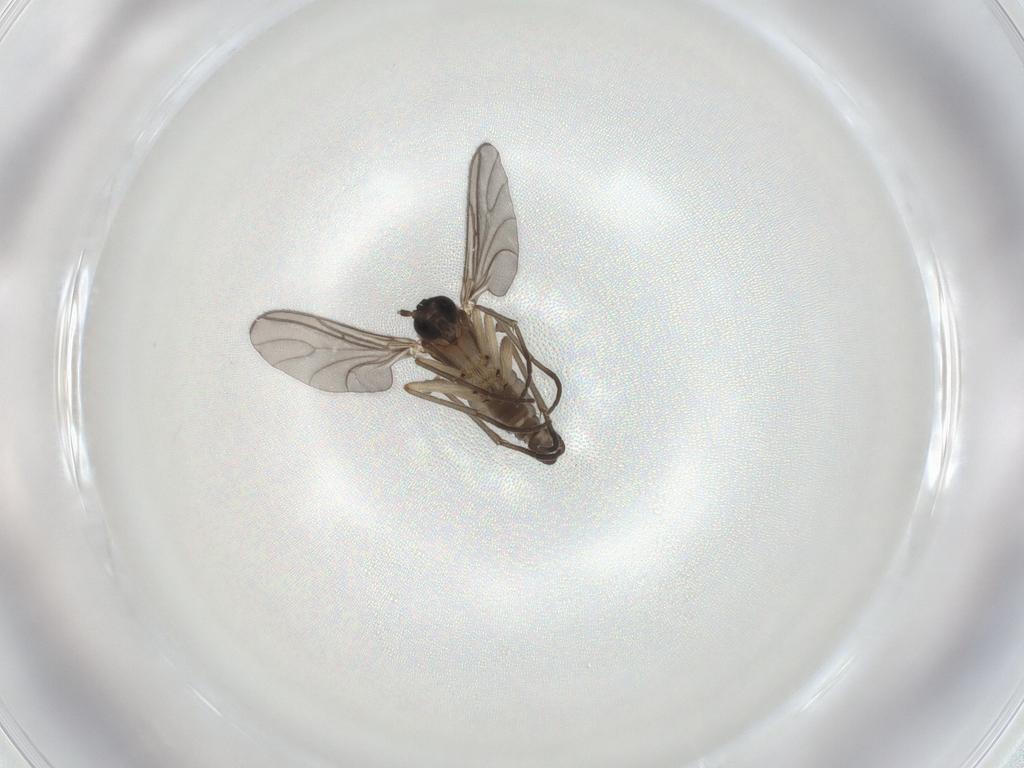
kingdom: Animalia
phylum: Arthropoda
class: Insecta
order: Diptera
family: Sciaridae
